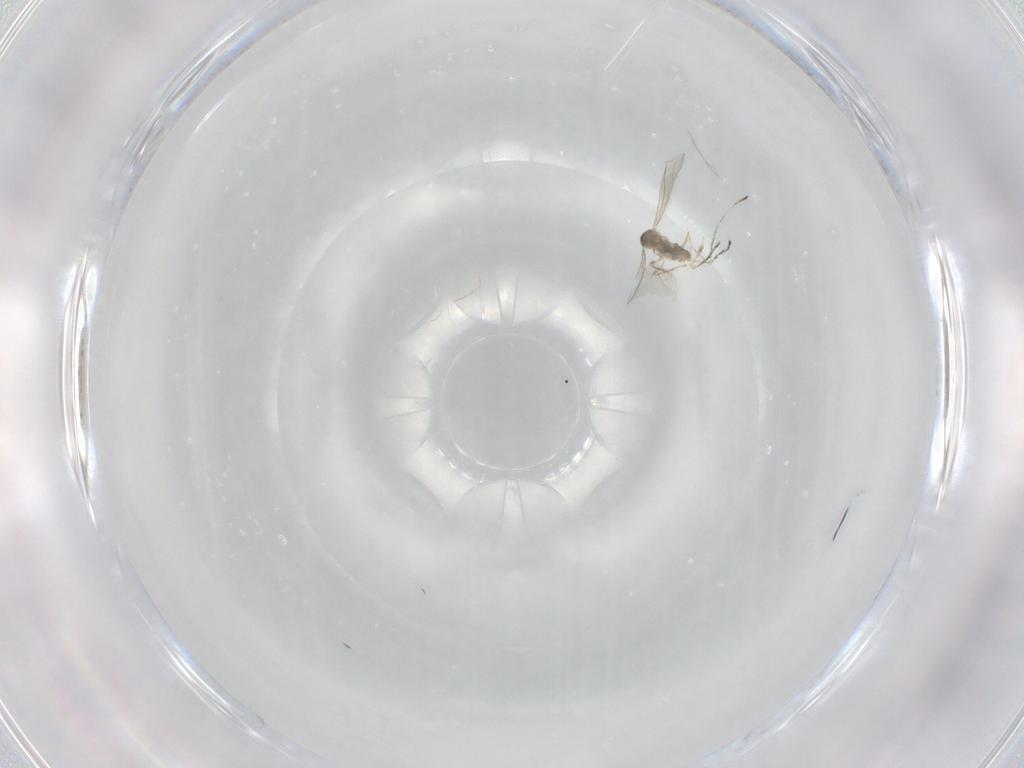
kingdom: Animalia
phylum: Arthropoda
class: Insecta
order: Diptera
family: Cecidomyiidae
